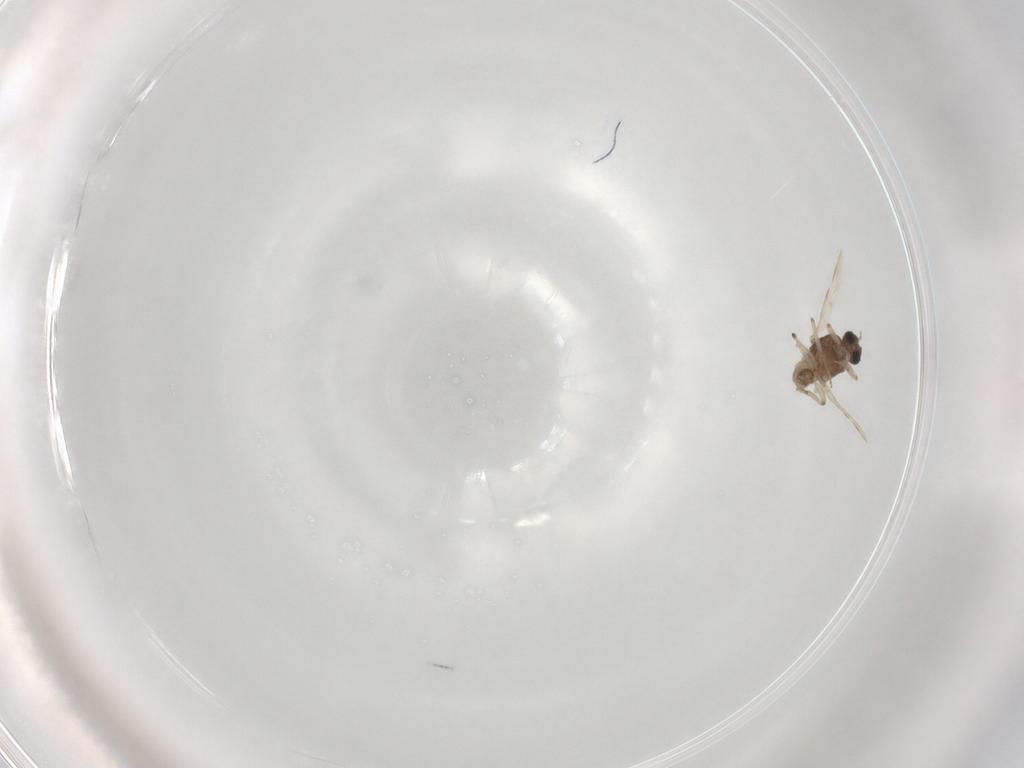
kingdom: Animalia
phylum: Arthropoda
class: Insecta
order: Diptera
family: Ceratopogonidae
